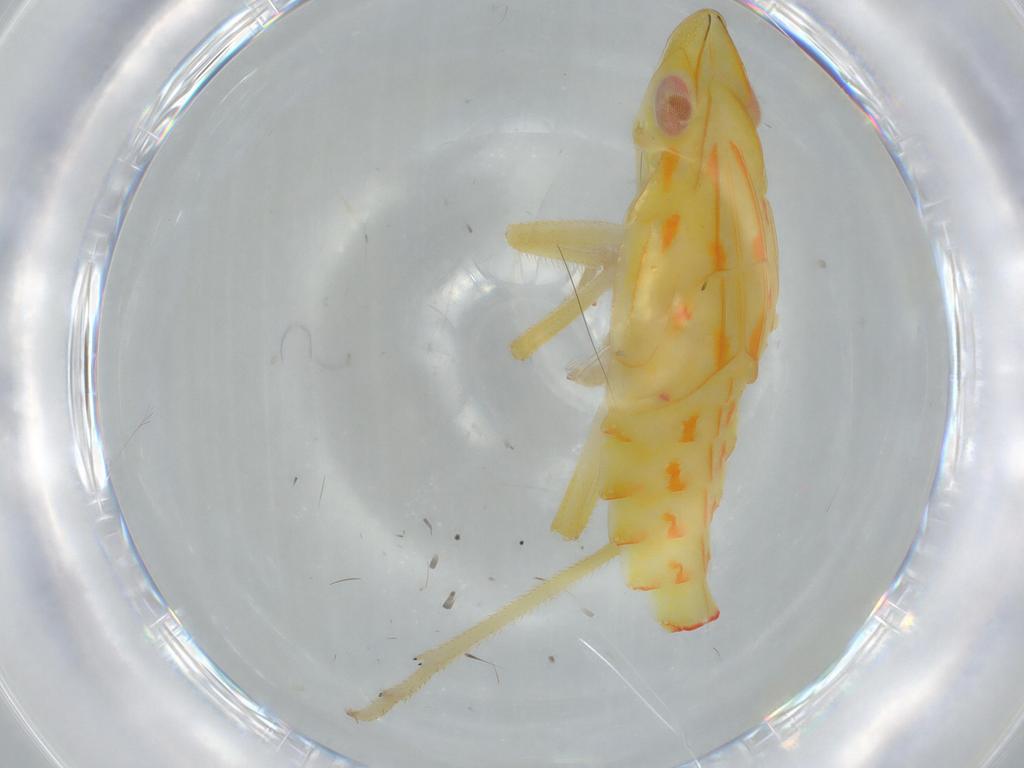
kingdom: Animalia
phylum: Arthropoda
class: Insecta
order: Hemiptera
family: Tropiduchidae
